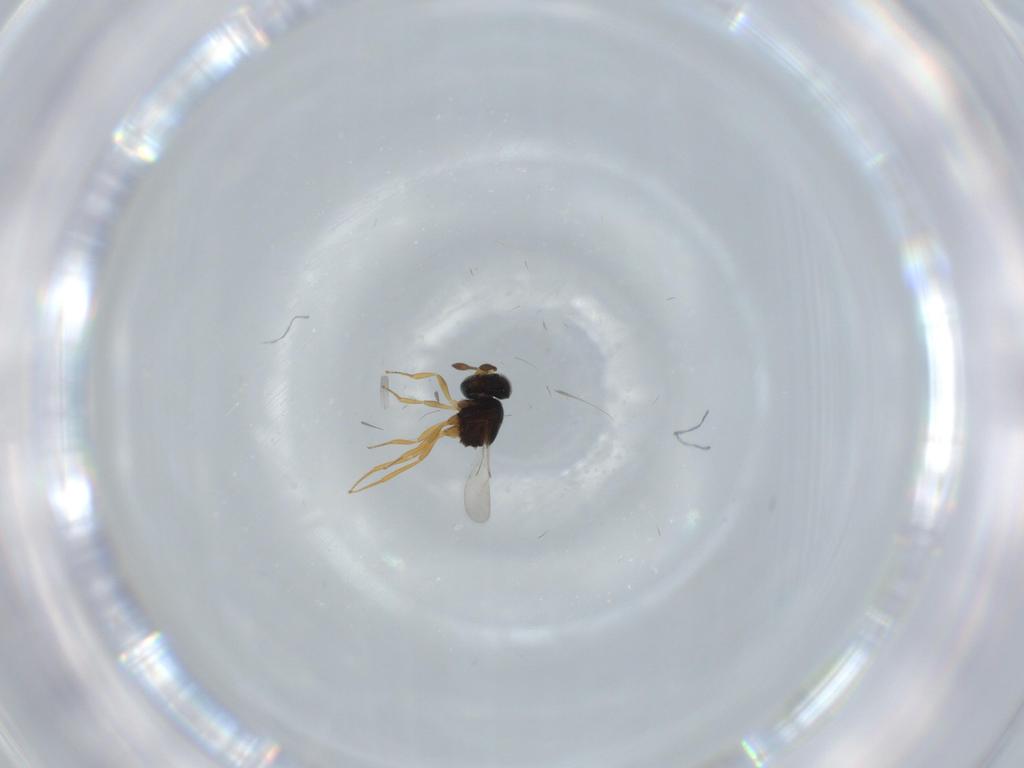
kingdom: Animalia
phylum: Arthropoda
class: Insecta
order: Hymenoptera
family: Scelionidae
